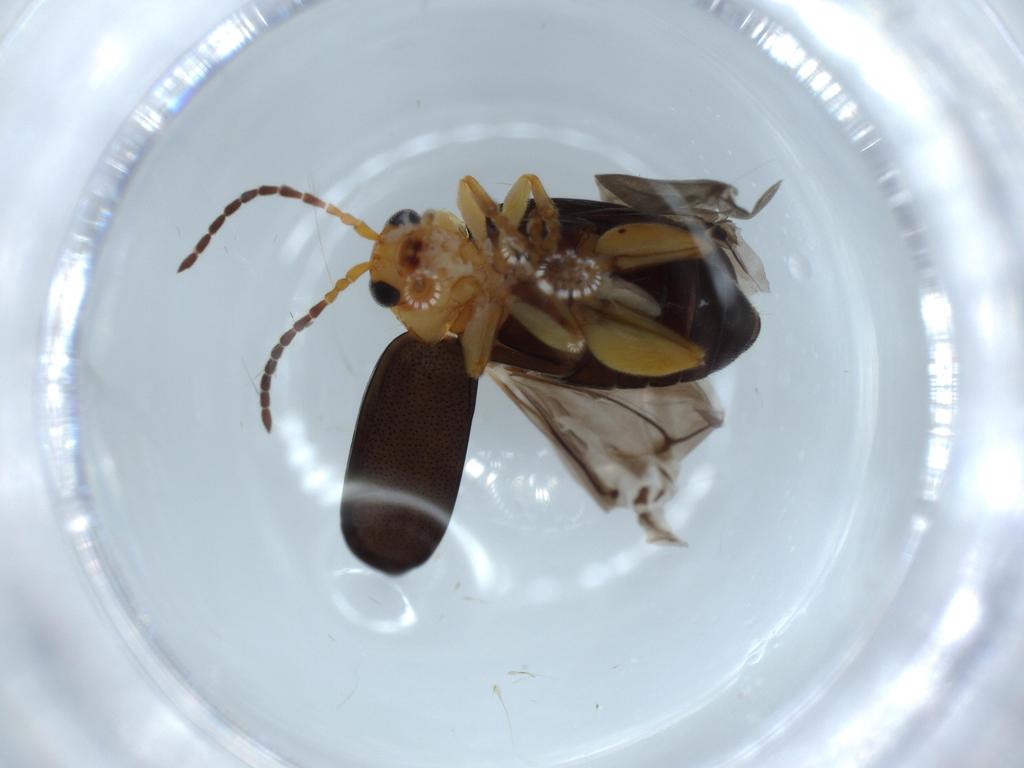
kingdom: Animalia
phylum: Arthropoda
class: Insecta
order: Coleoptera
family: Chrysomelidae
